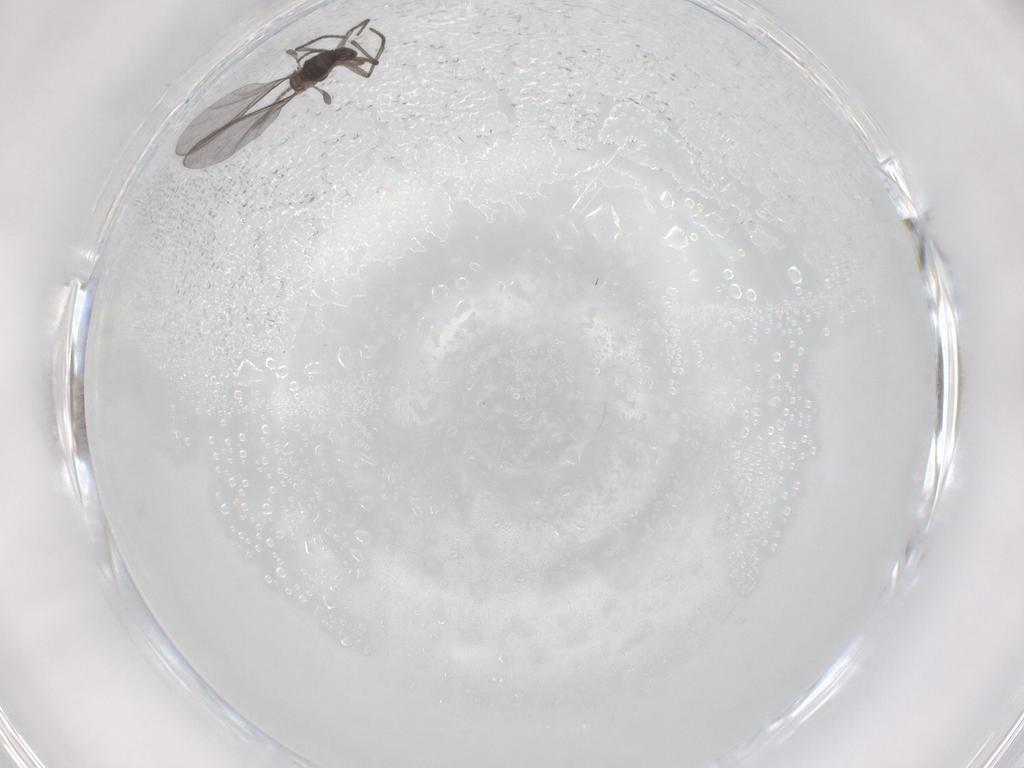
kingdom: Animalia
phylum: Arthropoda
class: Insecta
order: Diptera
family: Sciaridae
